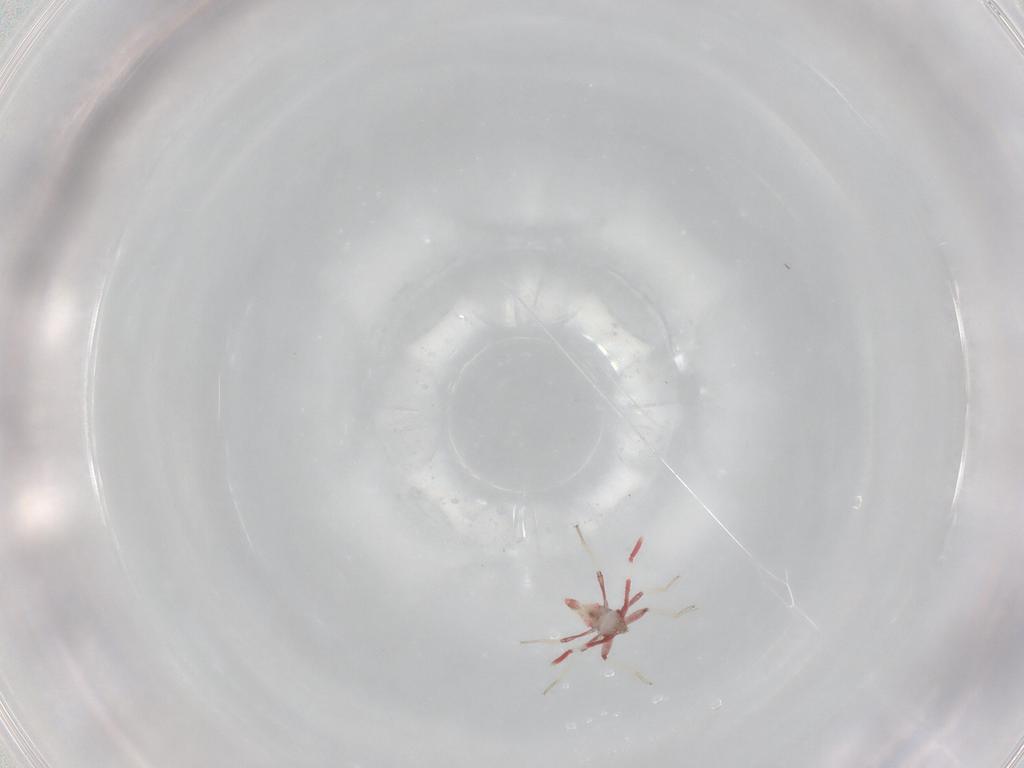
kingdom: Animalia
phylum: Arthropoda
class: Insecta
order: Hemiptera
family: Miridae
